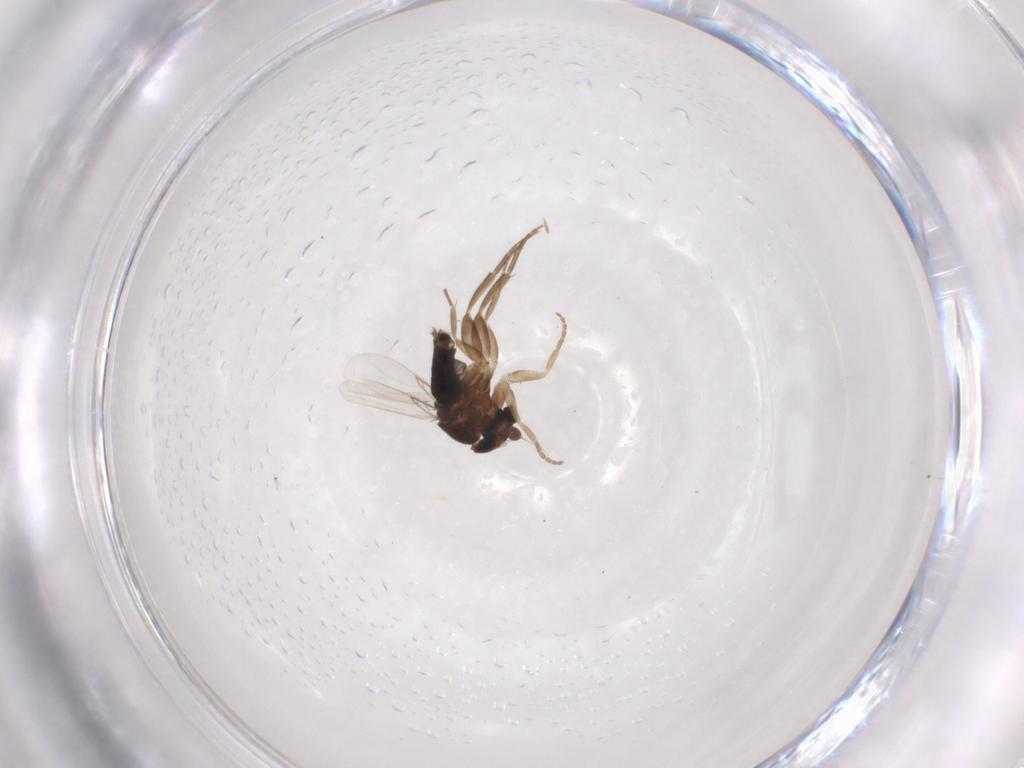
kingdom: Animalia
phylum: Arthropoda
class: Insecta
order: Diptera
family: Phoridae
